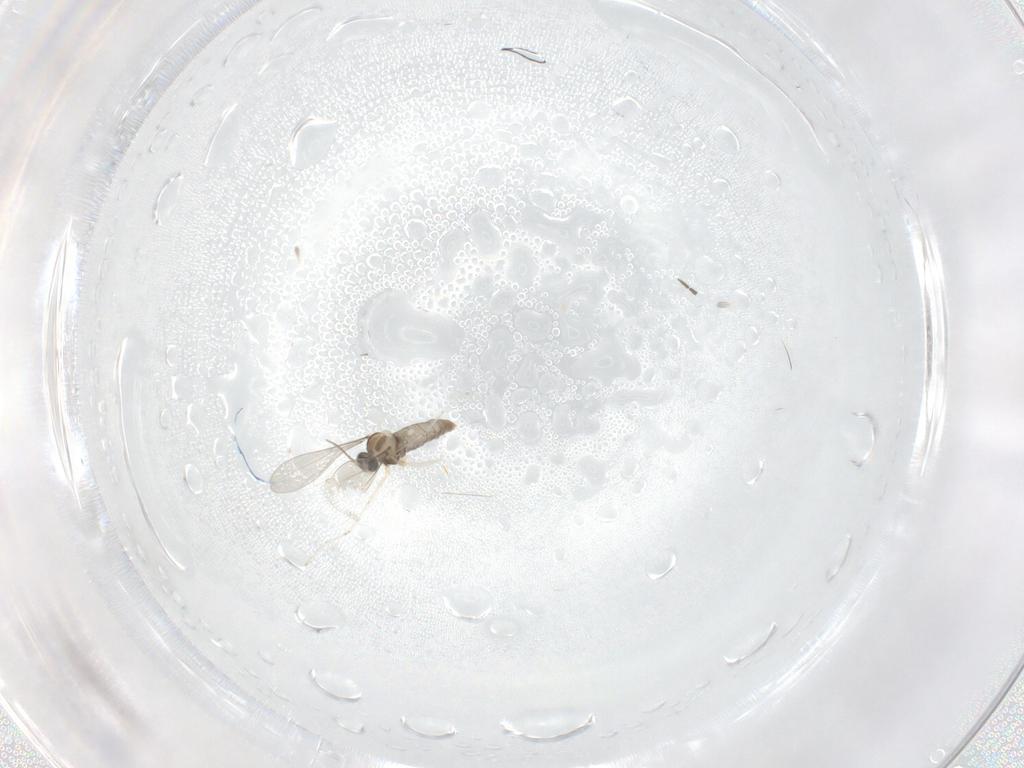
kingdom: Animalia
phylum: Arthropoda
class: Insecta
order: Diptera
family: Cecidomyiidae
